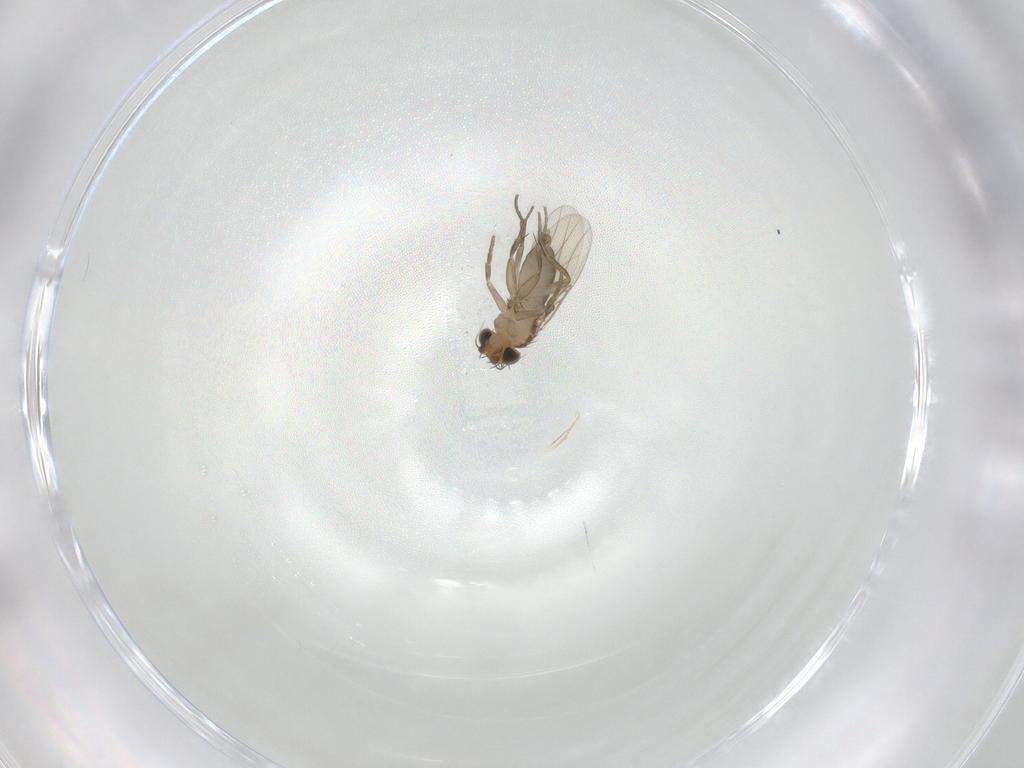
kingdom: Animalia
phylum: Arthropoda
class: Insecta
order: Diptera
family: Phoridae
